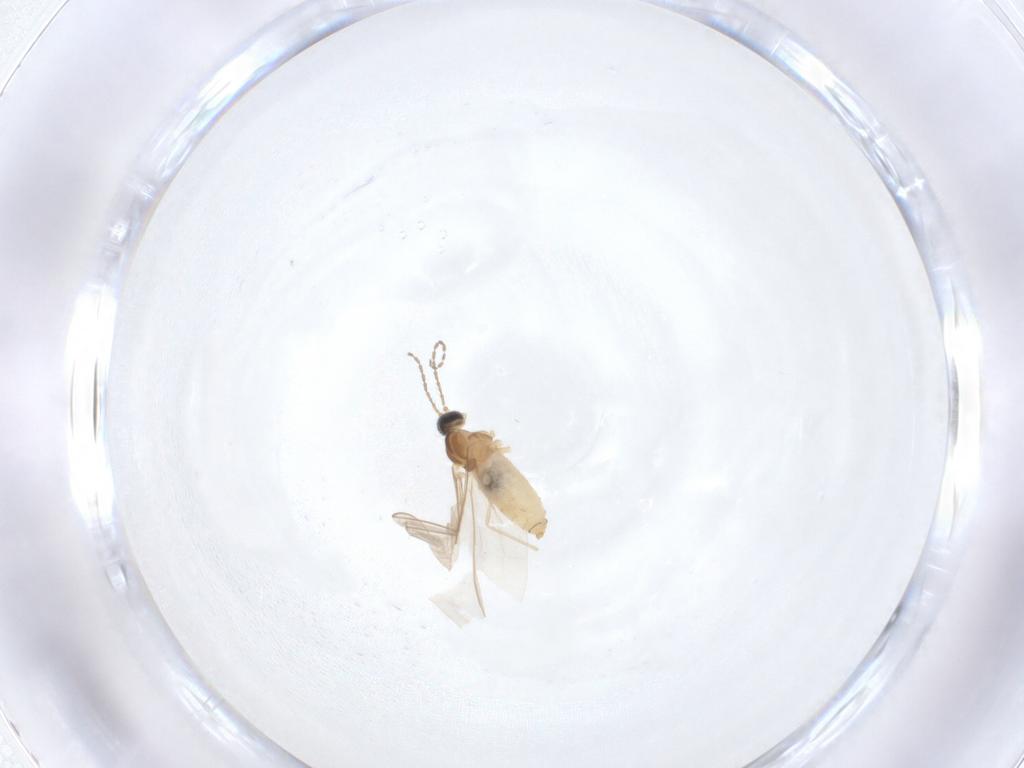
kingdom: Animalia
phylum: Arthropoda
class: Insecta
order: Diptera
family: Cecidomyiidae
